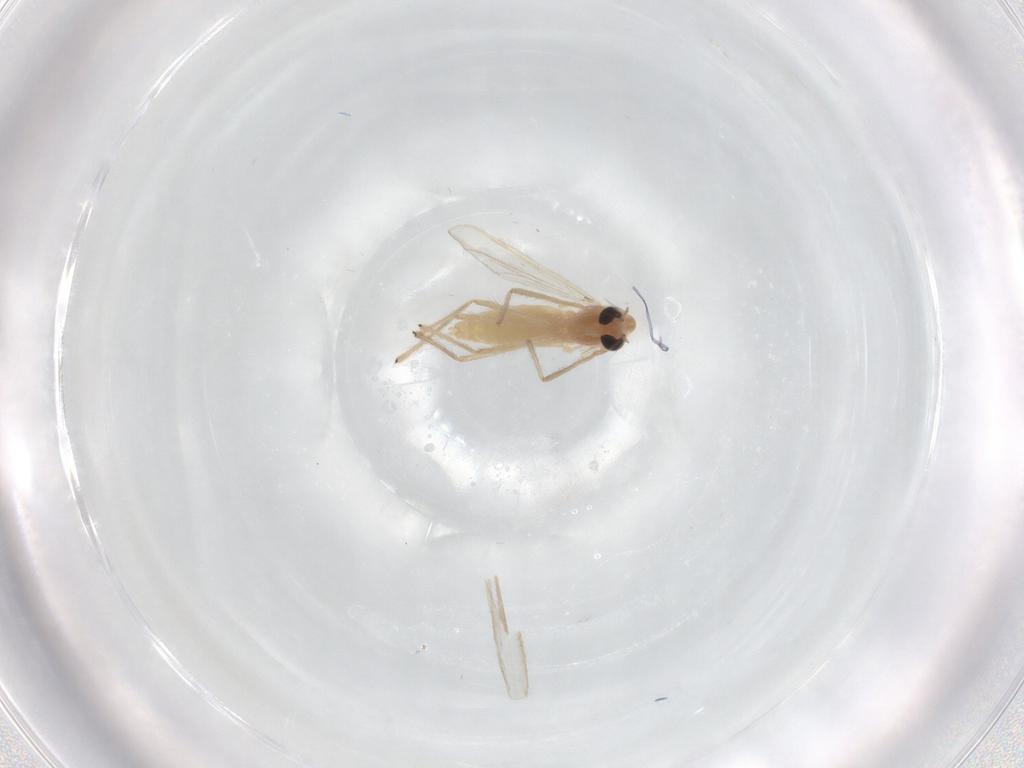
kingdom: Animalia
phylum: Arthropoda
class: Insecta
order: Diptera
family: Chironomidae
